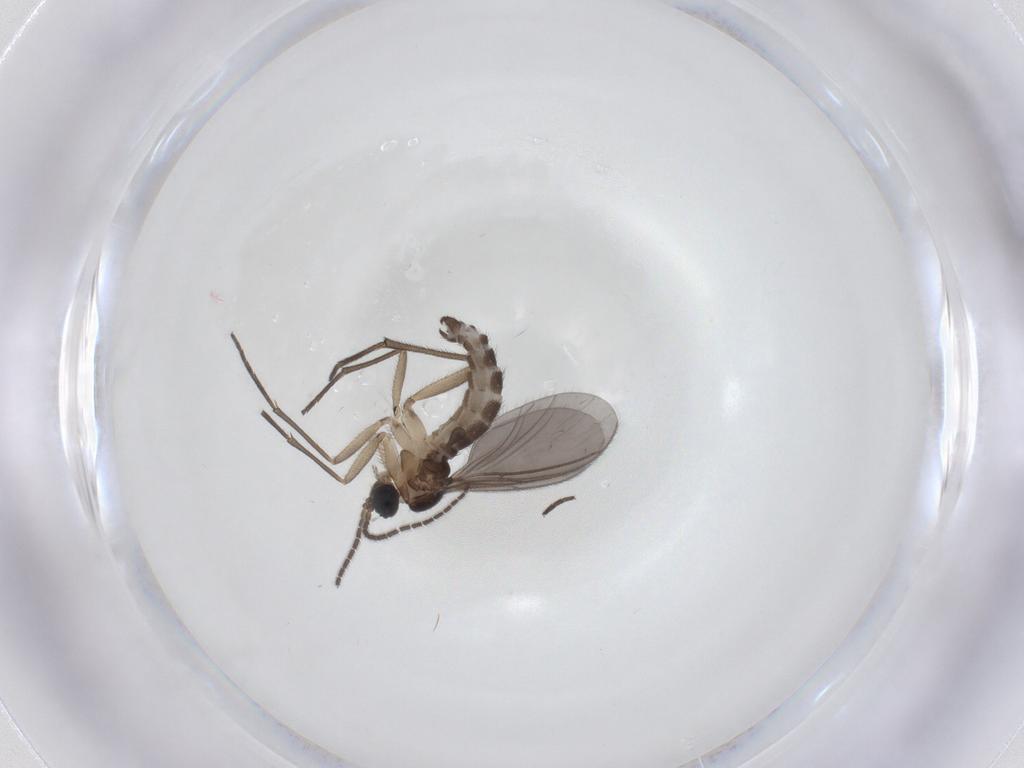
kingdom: Animalia
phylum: Arthropoda
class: Insecta
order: Diptera
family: Sciaridae
